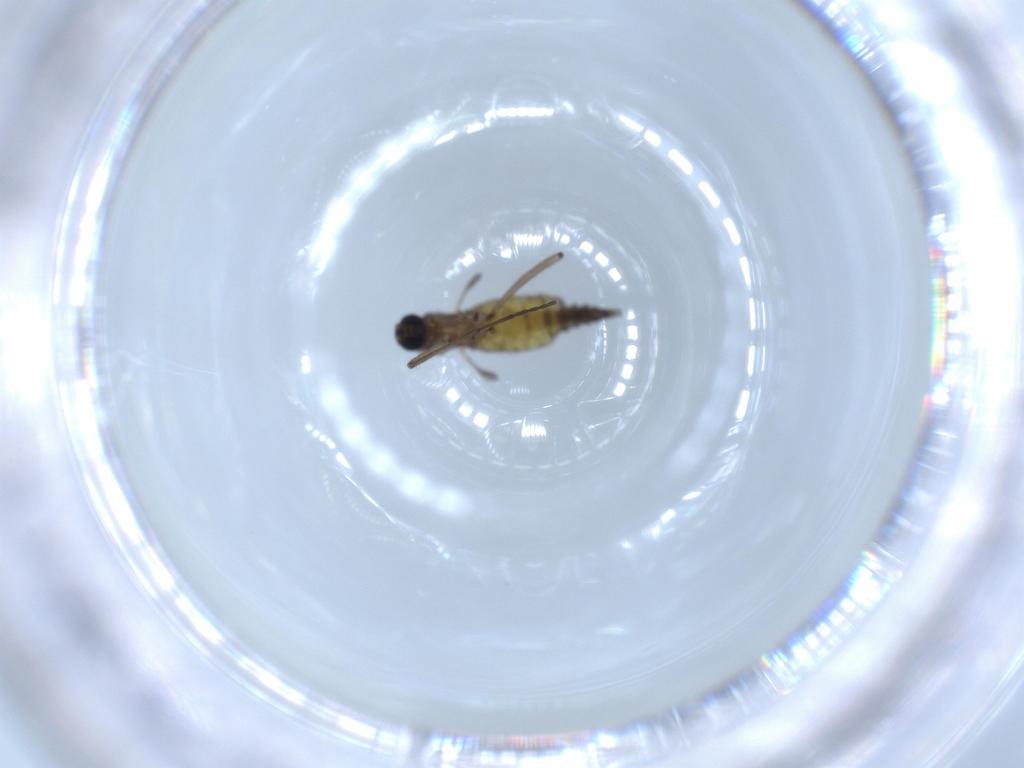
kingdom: Animalia
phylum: Arthropoda
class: Insecta
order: Diptera
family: Sciaridae
